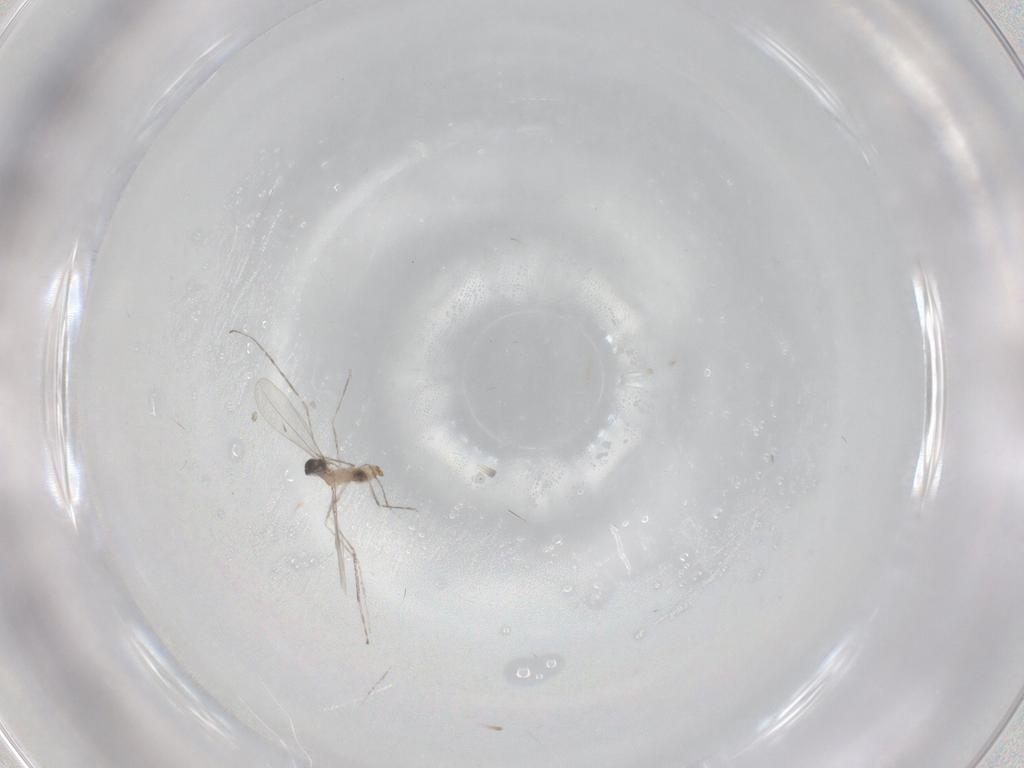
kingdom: Animalia
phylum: Arthropoda
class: Insecta
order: Diptera
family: Cecidomyiidae
